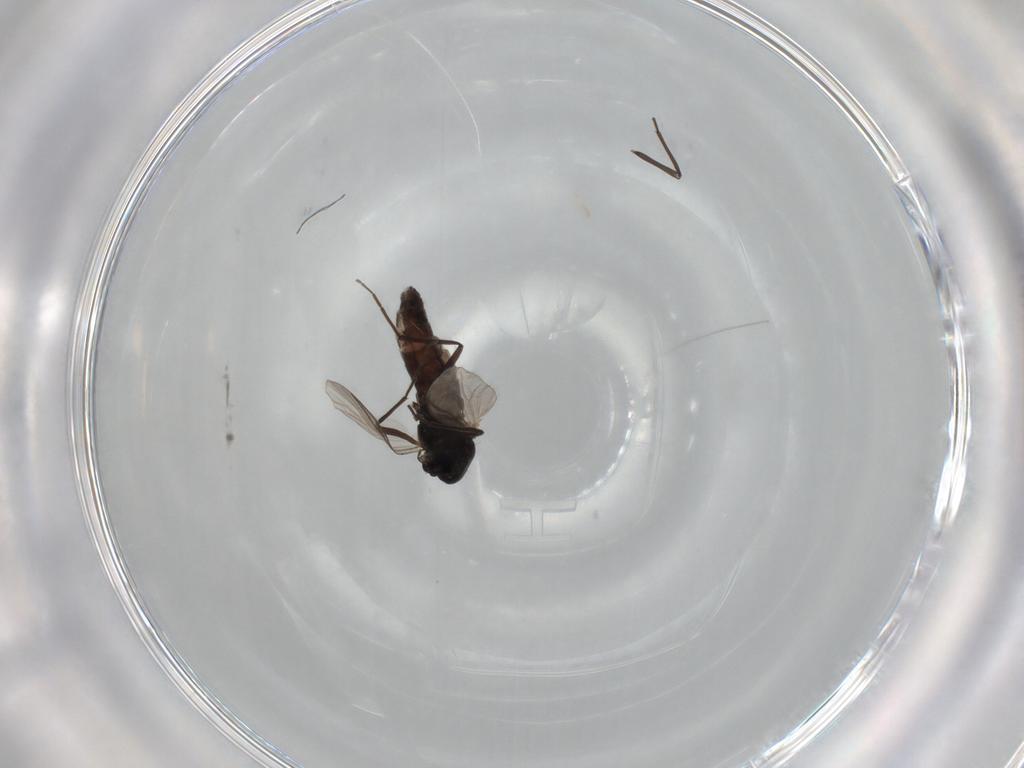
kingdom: Animalia
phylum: Arthropoda
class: Insecta
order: Diptera
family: Chironomidae
